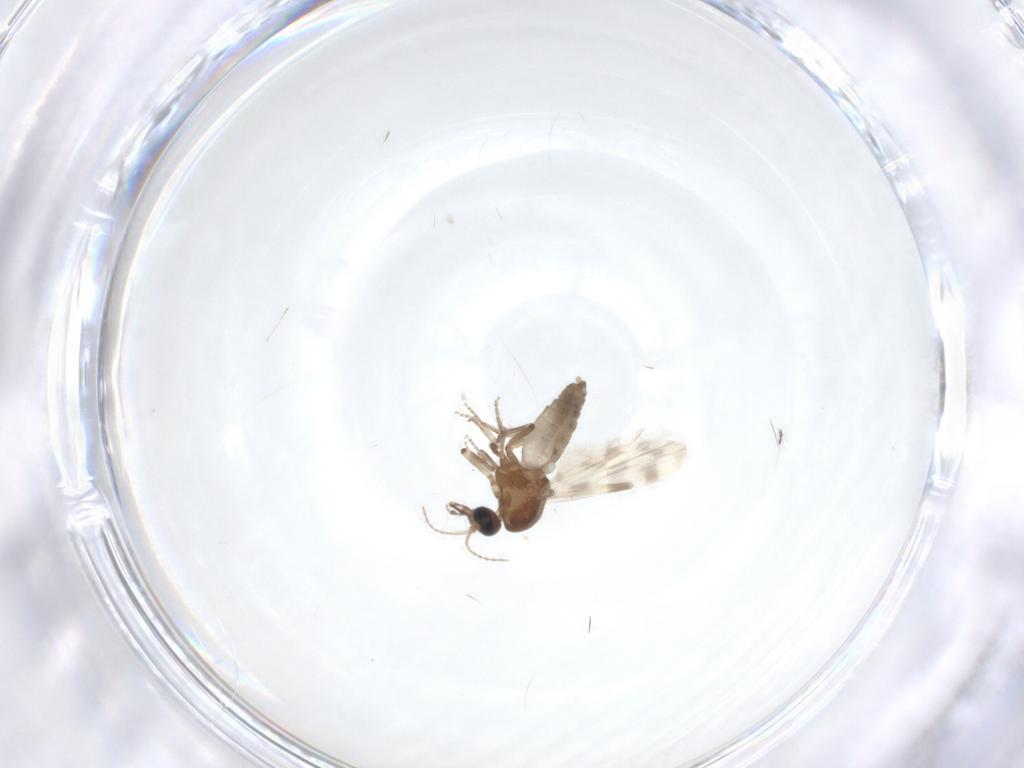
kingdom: Animalia
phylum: Arthropoda
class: Insecta
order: Diptera
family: Ceratopogonidae
